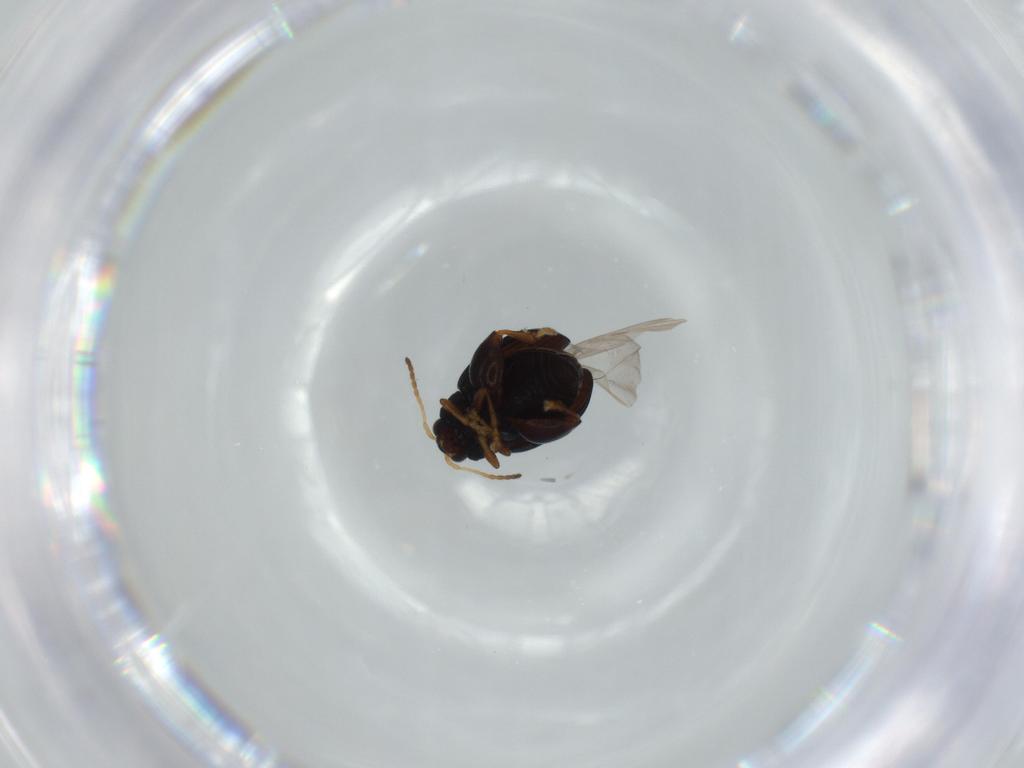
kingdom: Animalia
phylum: Arthropoda
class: Insecta
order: Coleoptera
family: Chrysomelidae
